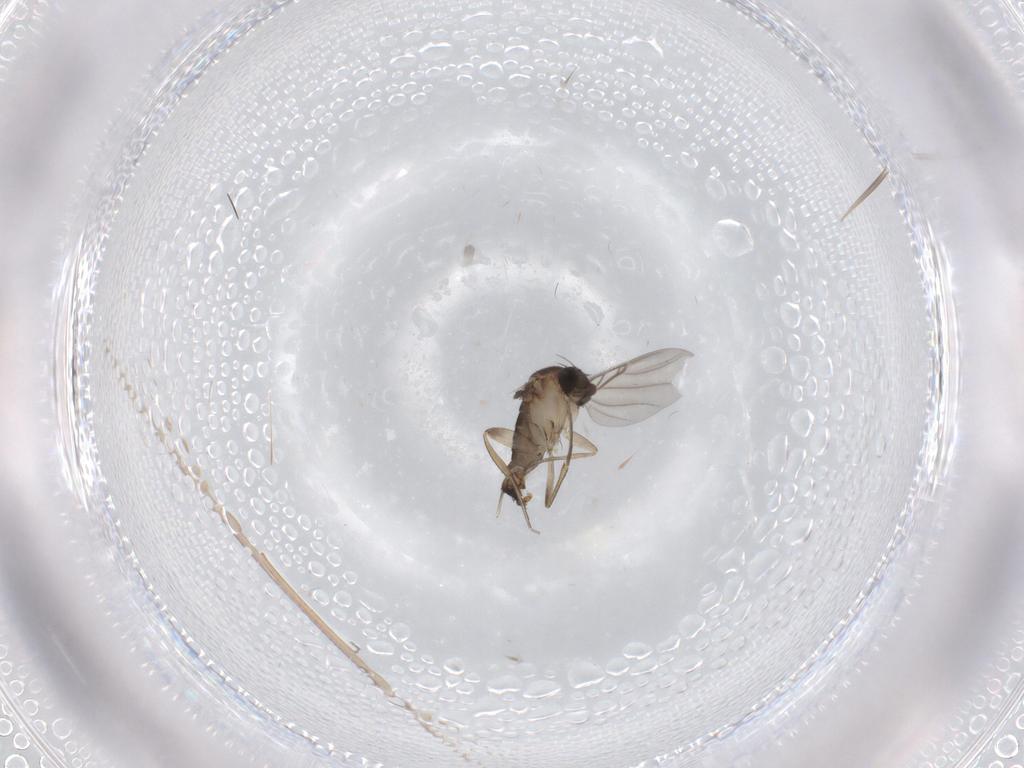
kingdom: Animalia
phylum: Arthropoda
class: Insecta
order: Diptera
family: Phoridae
